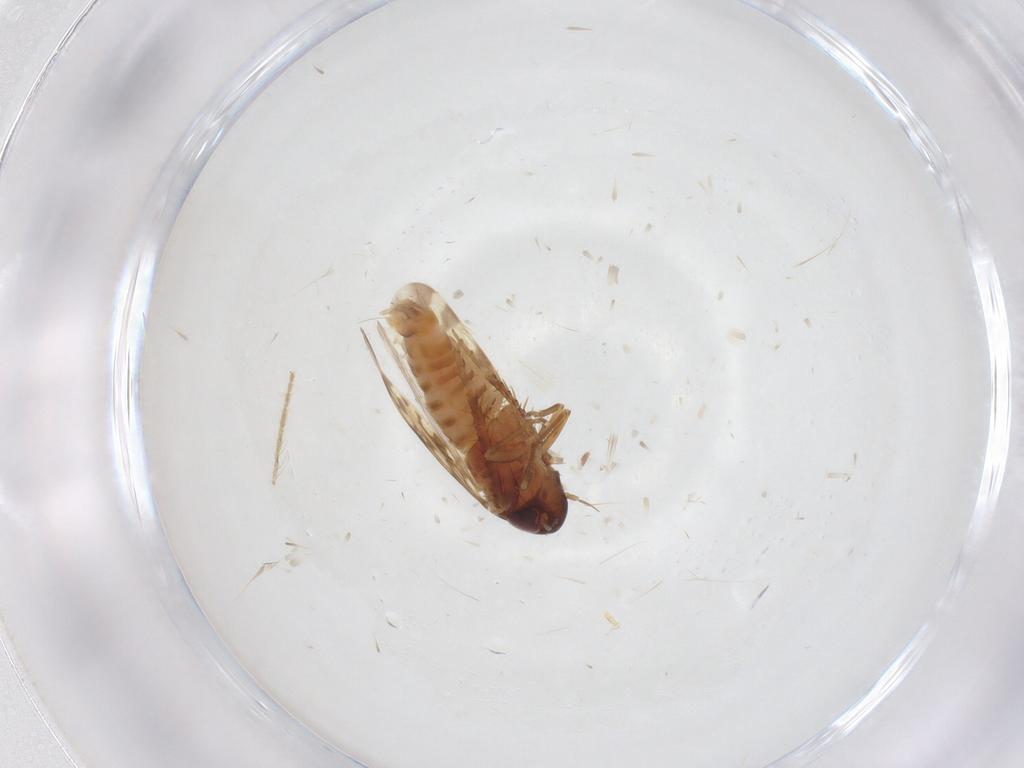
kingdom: Animalia
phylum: Arthropoda
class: Insecta
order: Hemiptera
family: Cicadellidae
